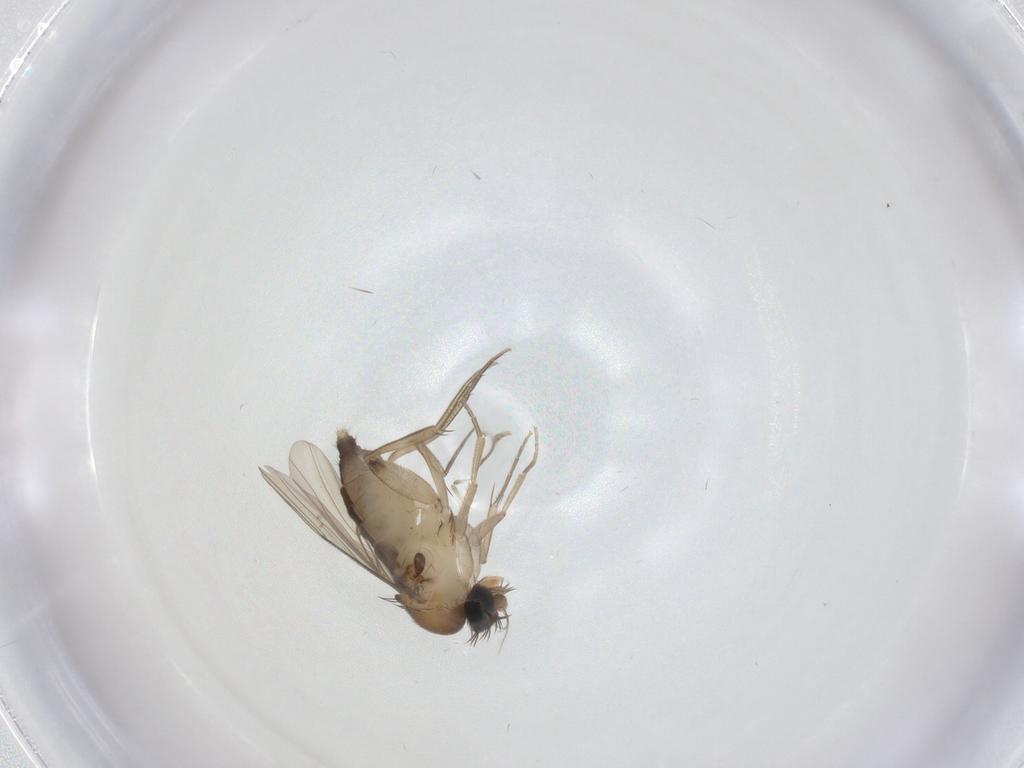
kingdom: Animalia
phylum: Arthropoda
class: Insecta
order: Diptera
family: Phoridae
